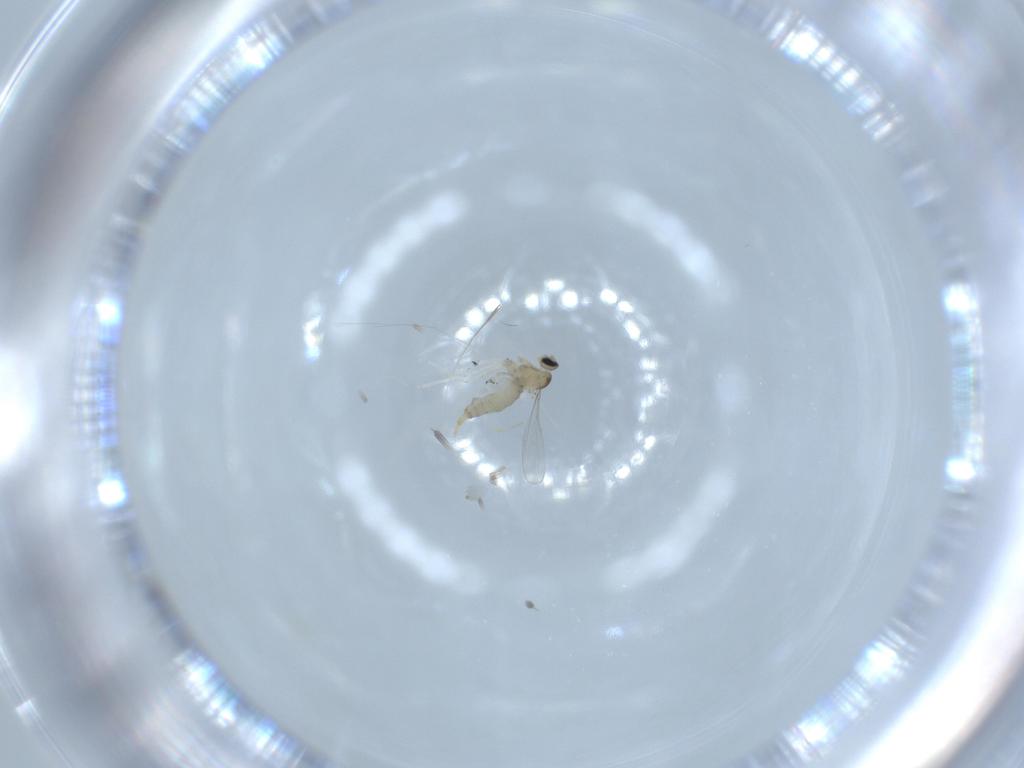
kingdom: Animalia
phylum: Arthropoda
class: Insecta
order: Diptera
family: Cecidomyiidae
